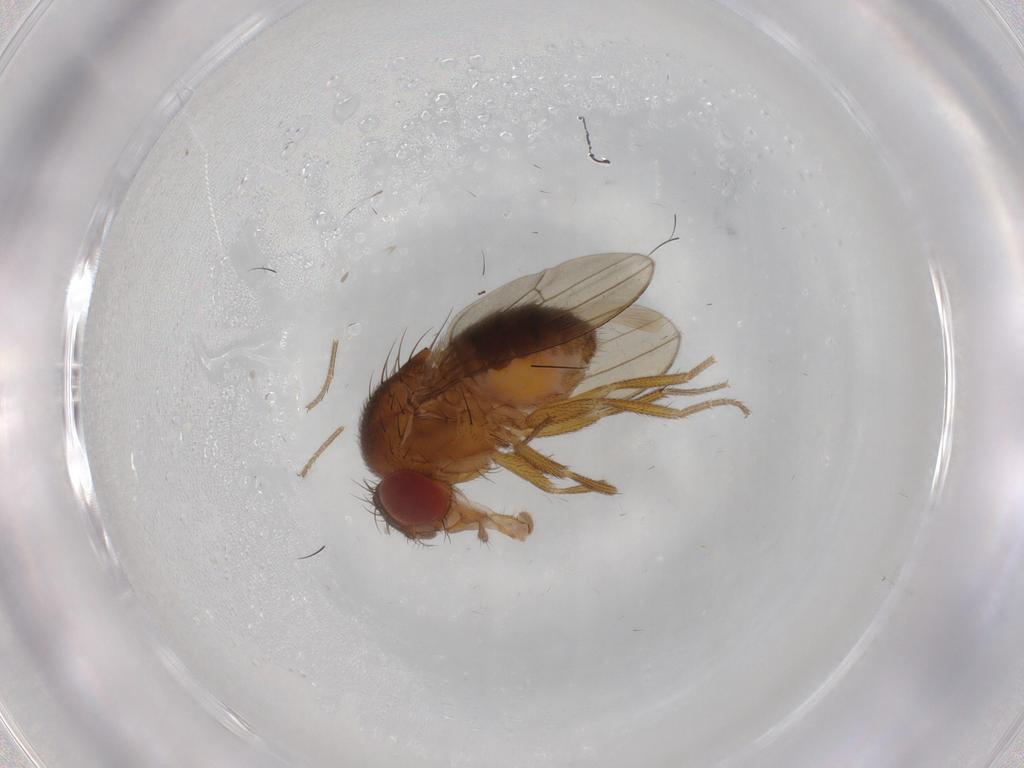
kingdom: Animalia
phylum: Arthropoda
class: Insecta
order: Diptera
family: Drosophilidae
